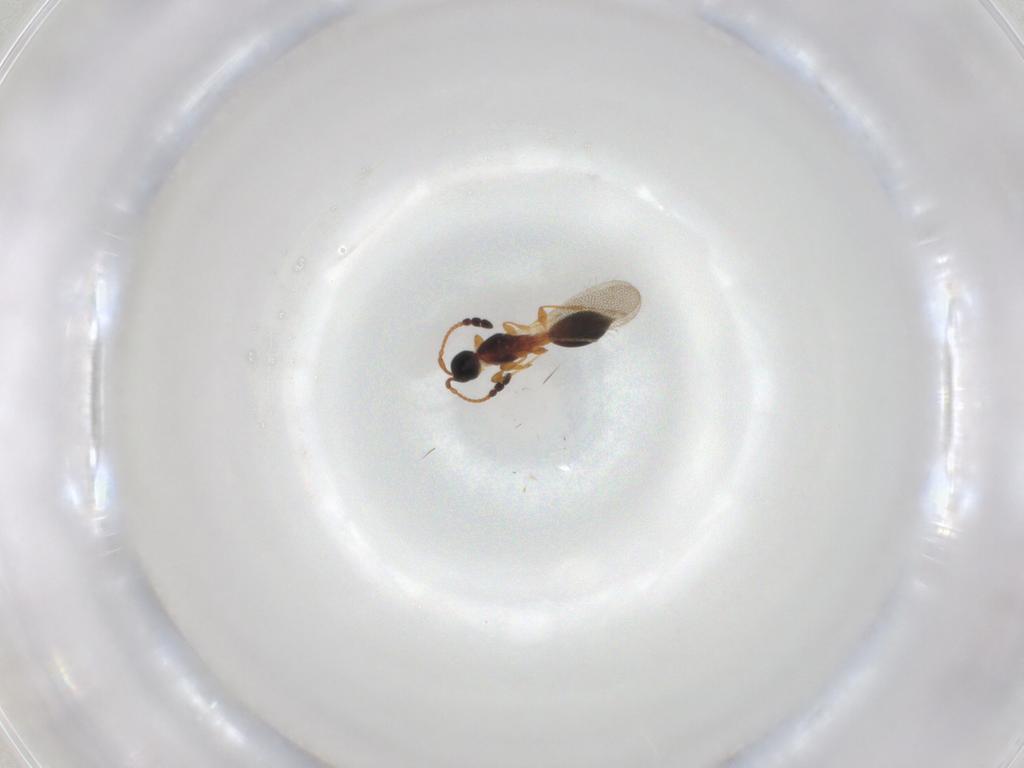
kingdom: Animalia
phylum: Arthropoda
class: Insecta
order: Hymenoptera
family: Diapriidae
